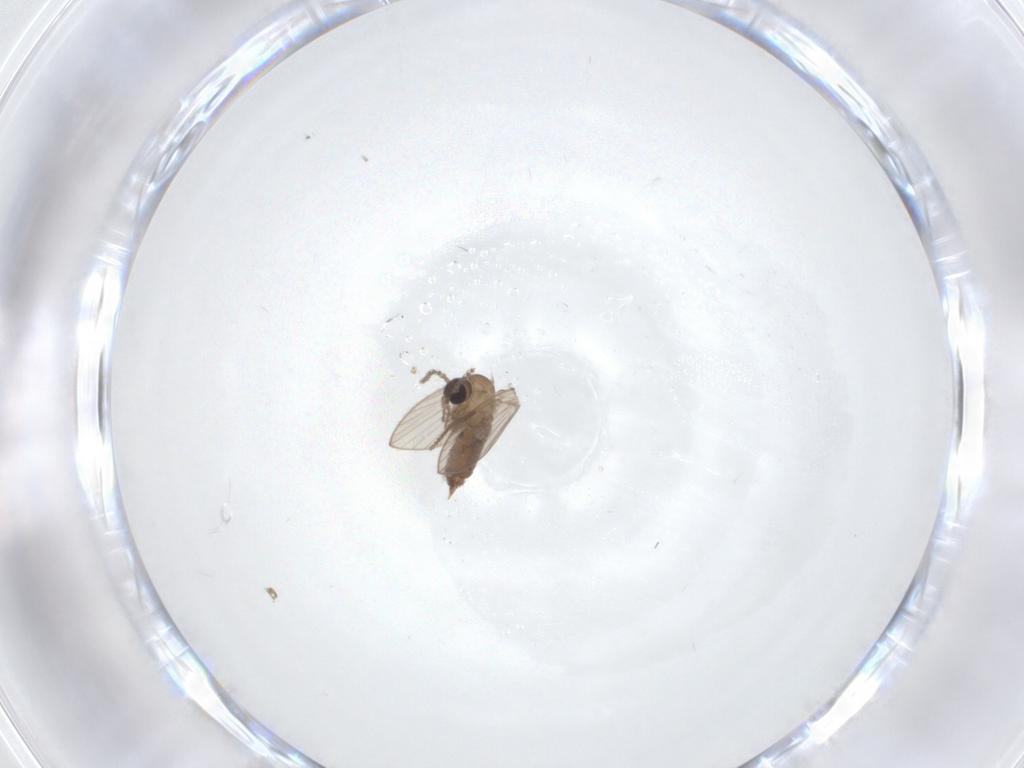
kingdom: Animalia
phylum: Arthropoda
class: Insecta
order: Diptera
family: Psychodidae
